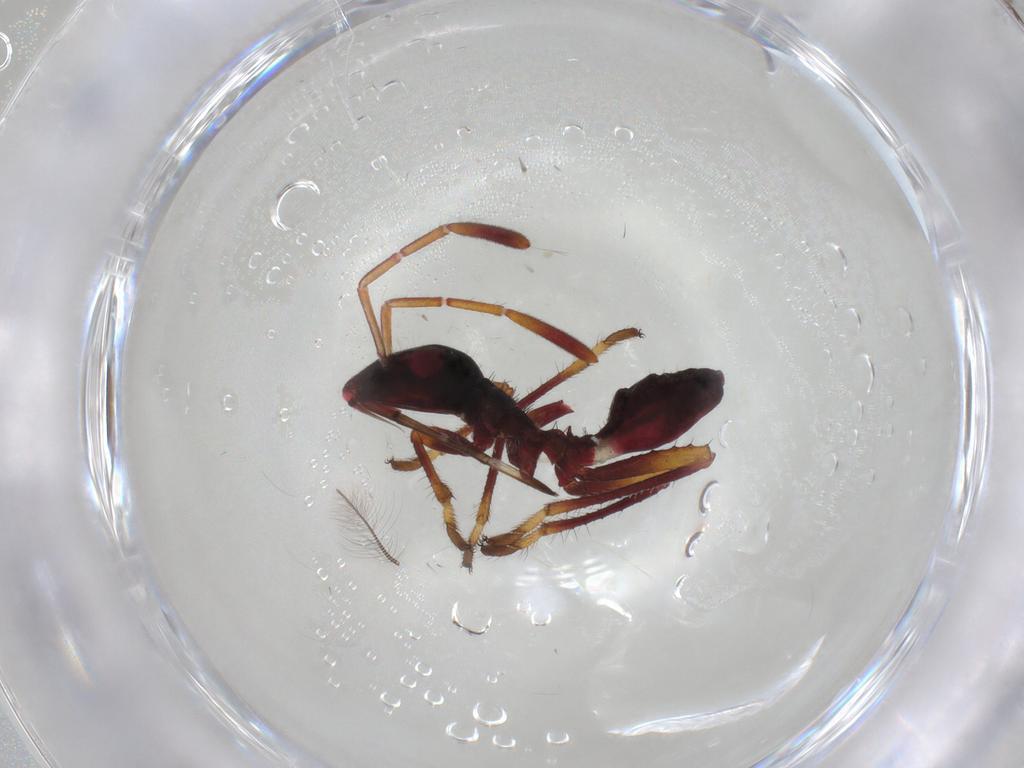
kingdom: Animalia
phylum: Arthropoda
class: Insecta
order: Hemiptera
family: Alydidae
